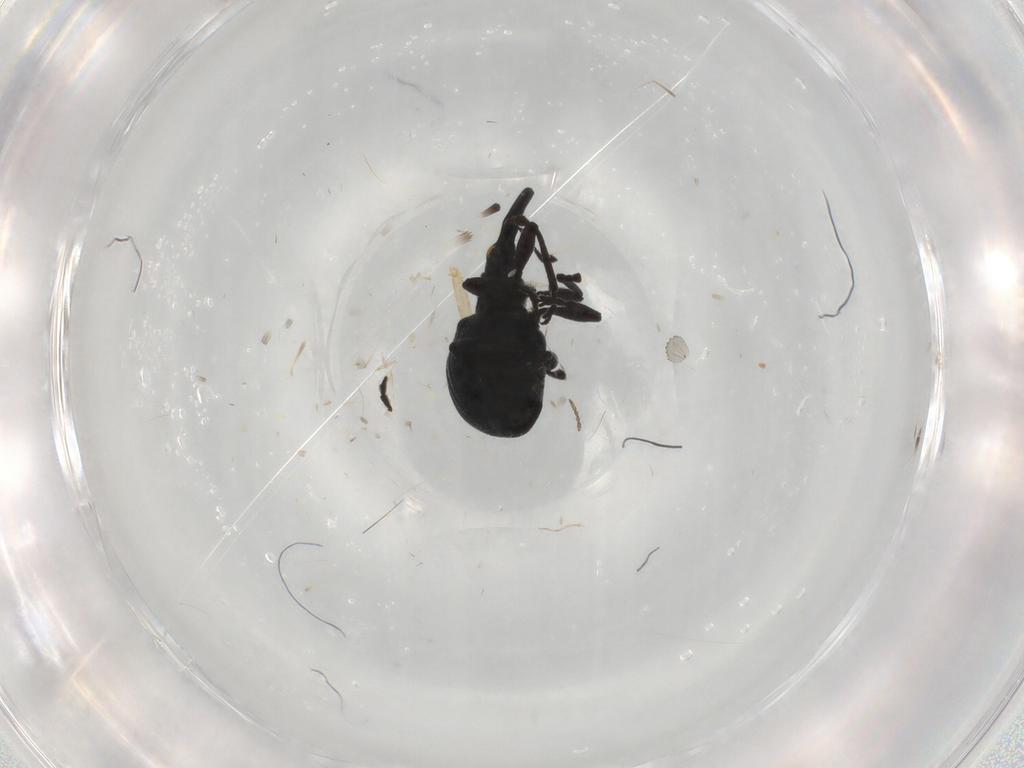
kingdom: Animalia
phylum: Arthropoda
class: Insecta
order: Coleoptera
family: Brentidae
